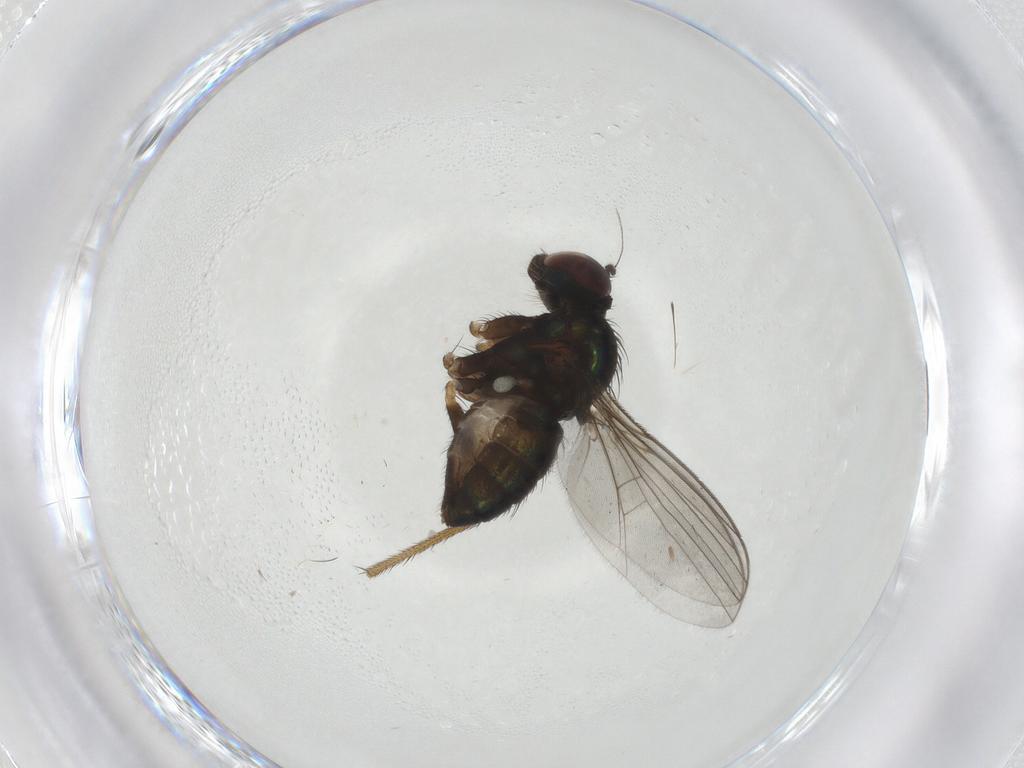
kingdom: Animalia
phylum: Arthropoda
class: Insecta
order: Diptera
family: Dolichopodidae
